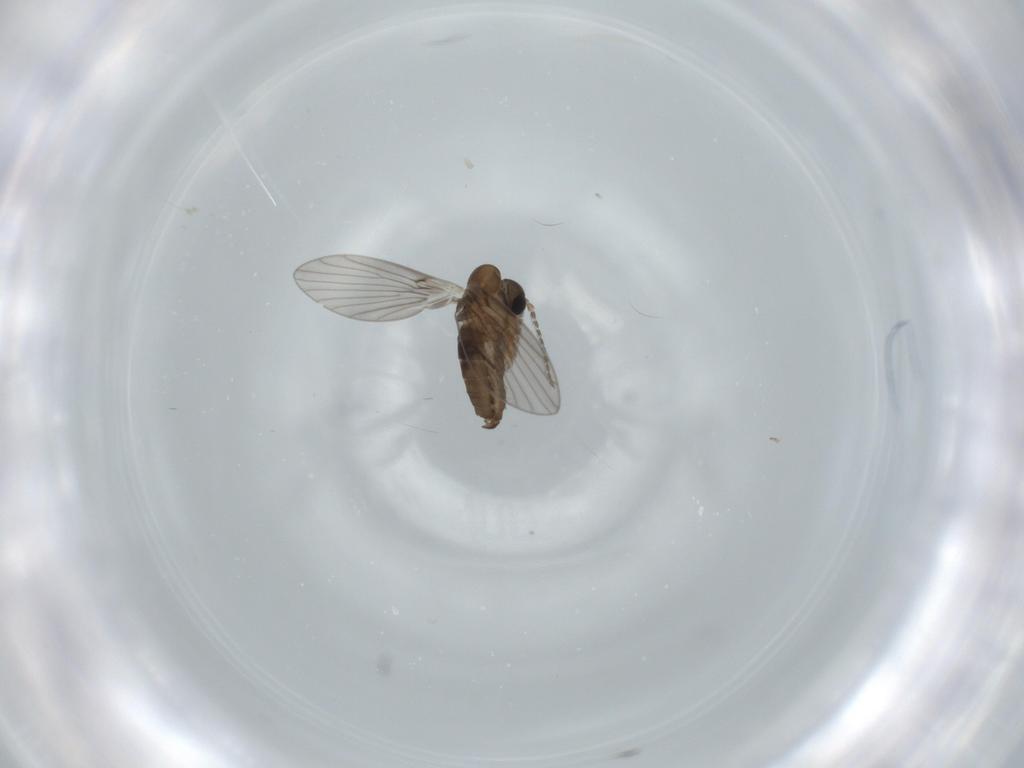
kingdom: Animalia
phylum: Arthropoda
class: Insecta
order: Diptera
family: Psychodidae
